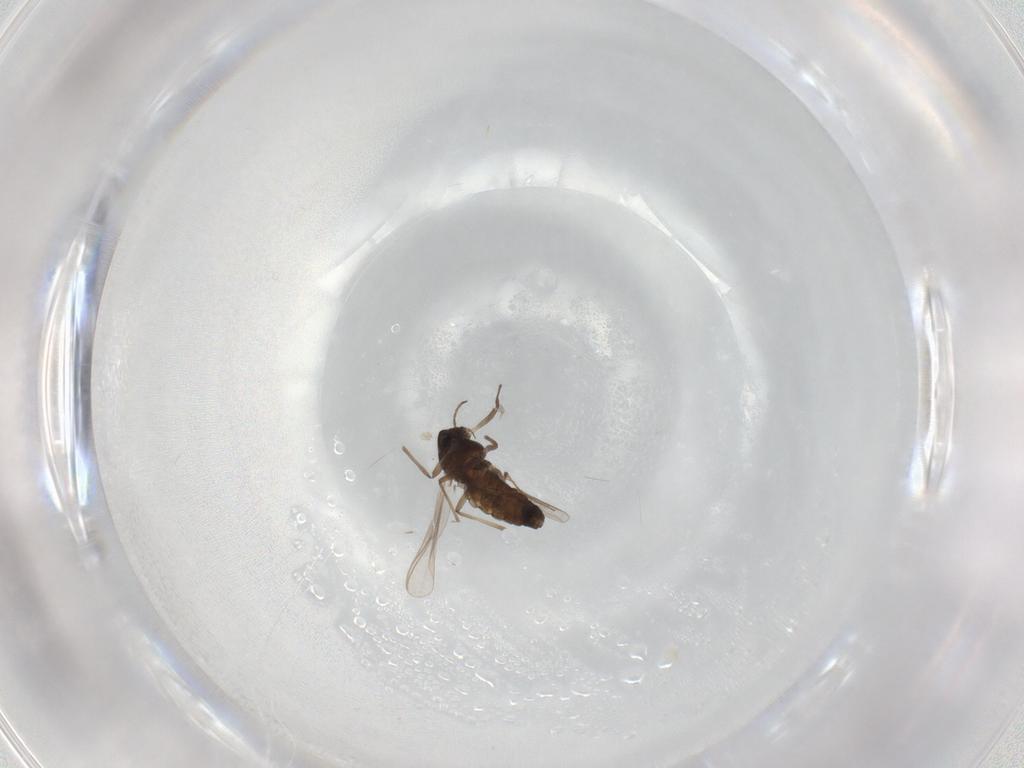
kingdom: Animalia
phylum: Arthropoda
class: Insecta
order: Diptera
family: Chironomidae
